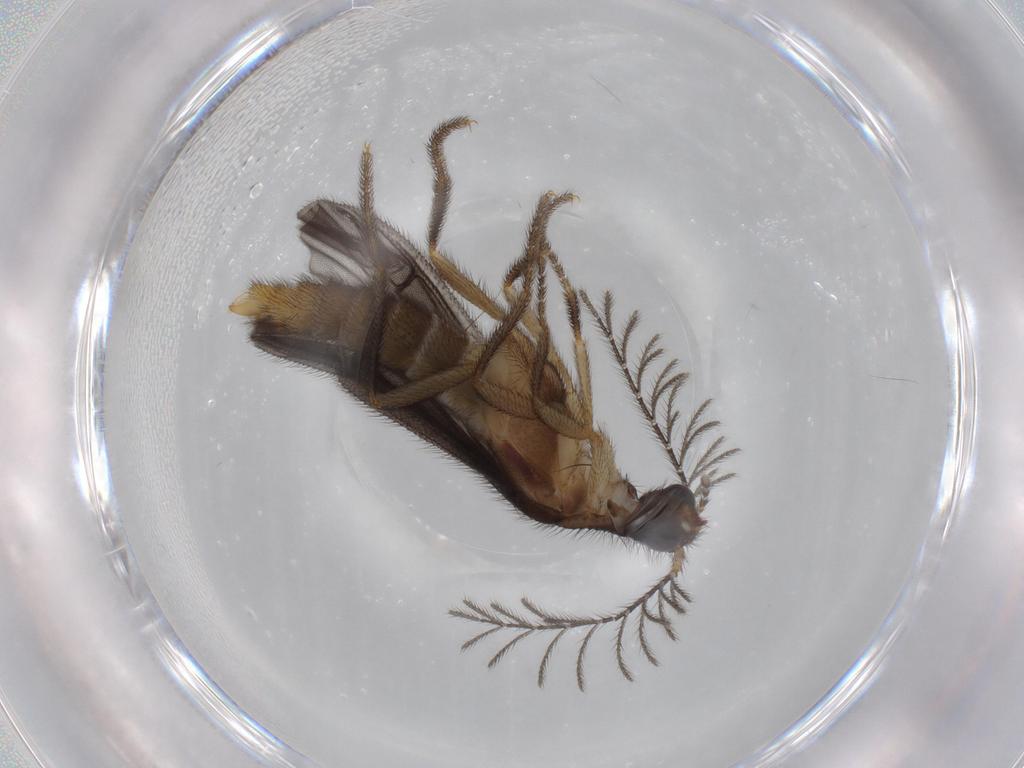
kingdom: Animalia
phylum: Arthropoda
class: Insecta
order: Coleoptera
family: Phengodidae
